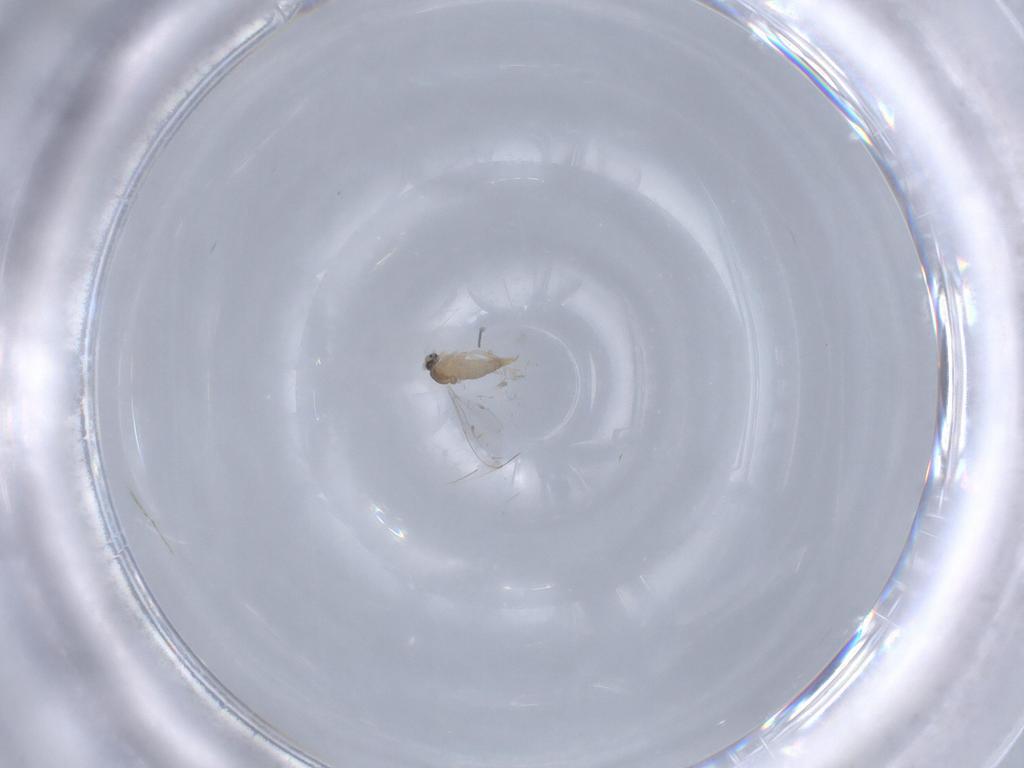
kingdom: Animalia
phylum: Arthropoda
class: Insecta
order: Diptera
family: Cecidomyiidae
